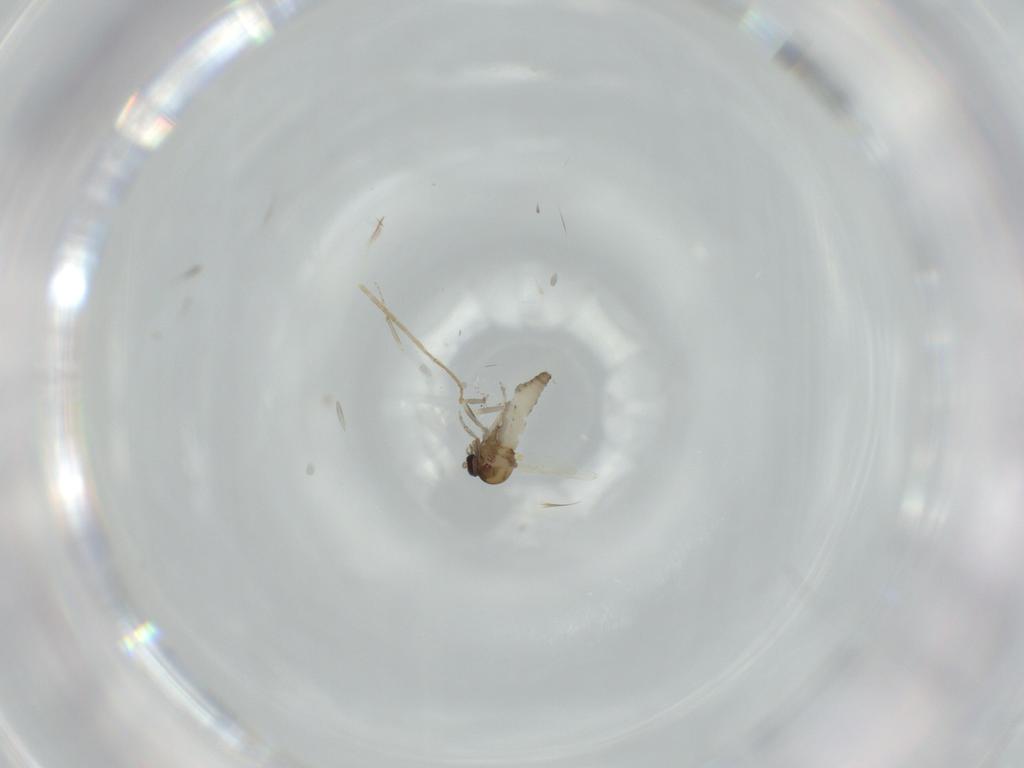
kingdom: Animalia
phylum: Arthropoda
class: Insecta
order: Diptera
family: Ceratopogonidae
